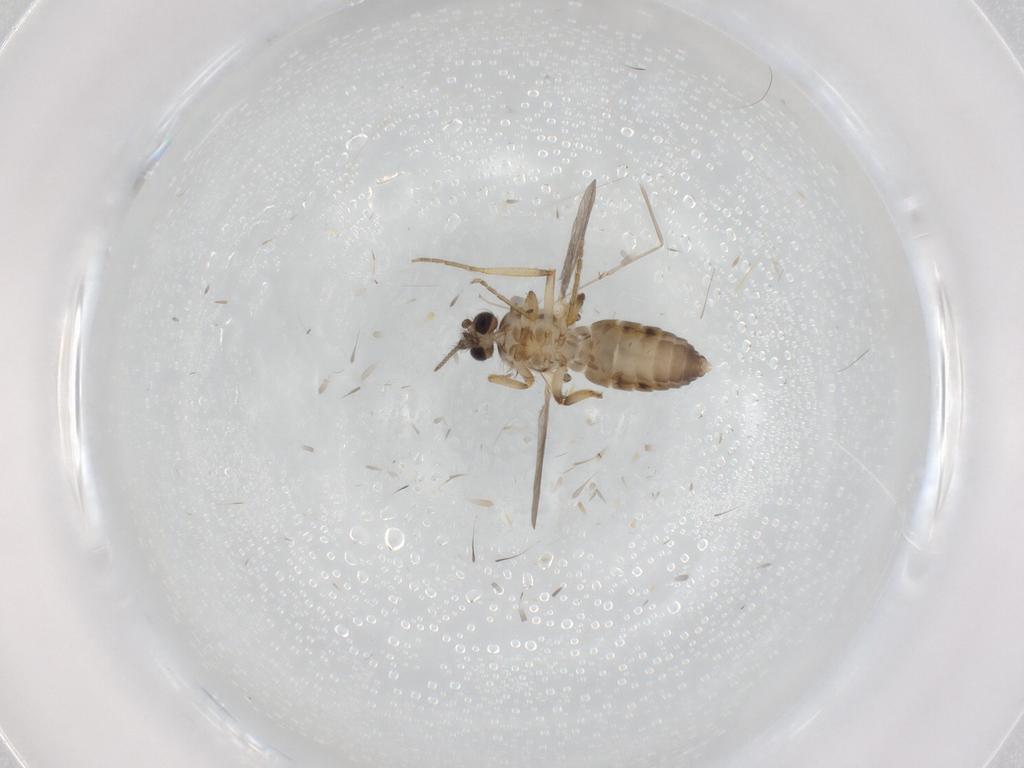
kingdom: Animalia
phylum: Arthropoda
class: Insecta
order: Diptera
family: Ceratopogonidae
